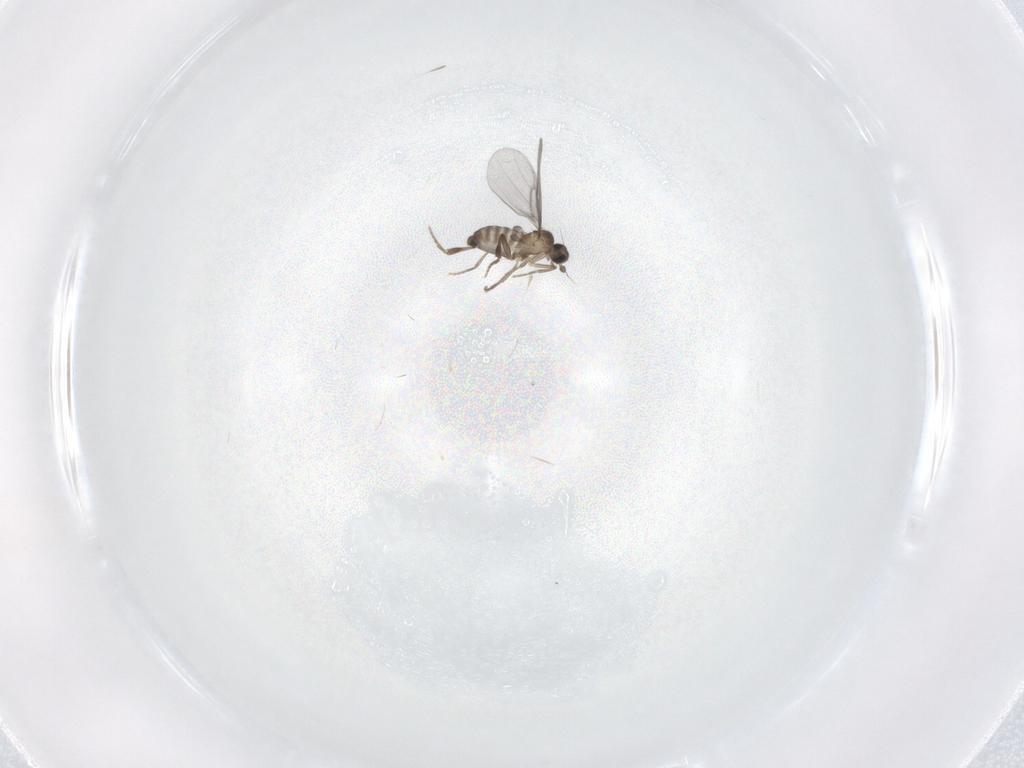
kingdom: Animalia
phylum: Arthropoda
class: Insecta
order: Diptera
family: Phoridae
